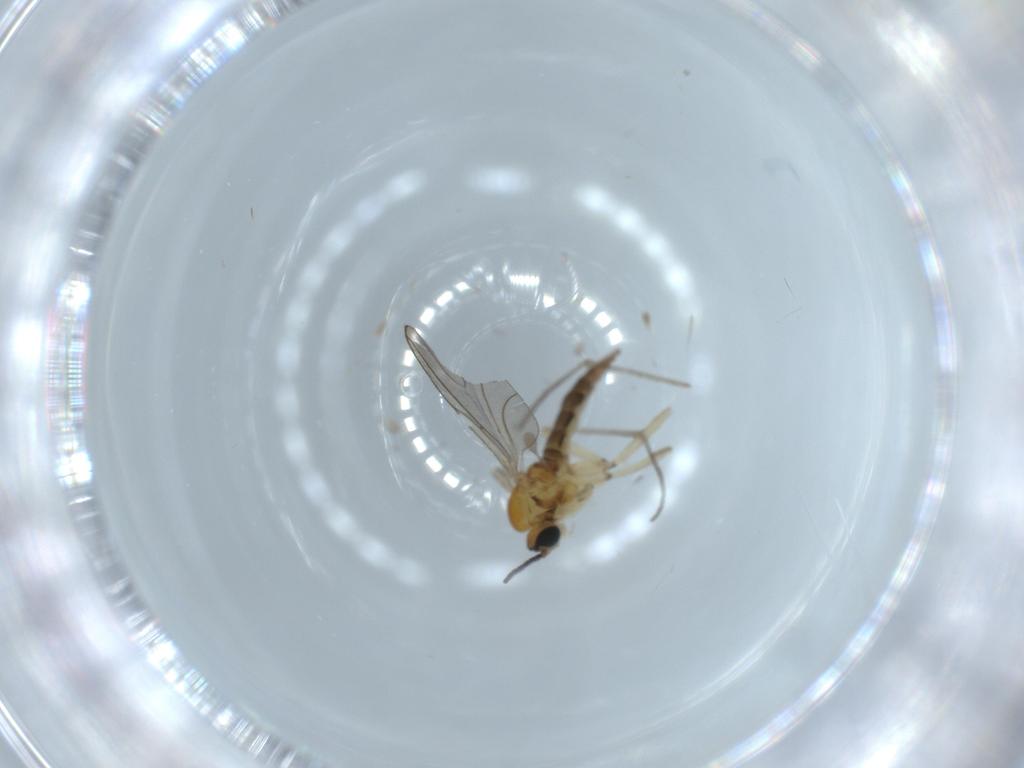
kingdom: Animalia
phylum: Arthropoda
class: Insecta
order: Diptera
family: Sciaridae
